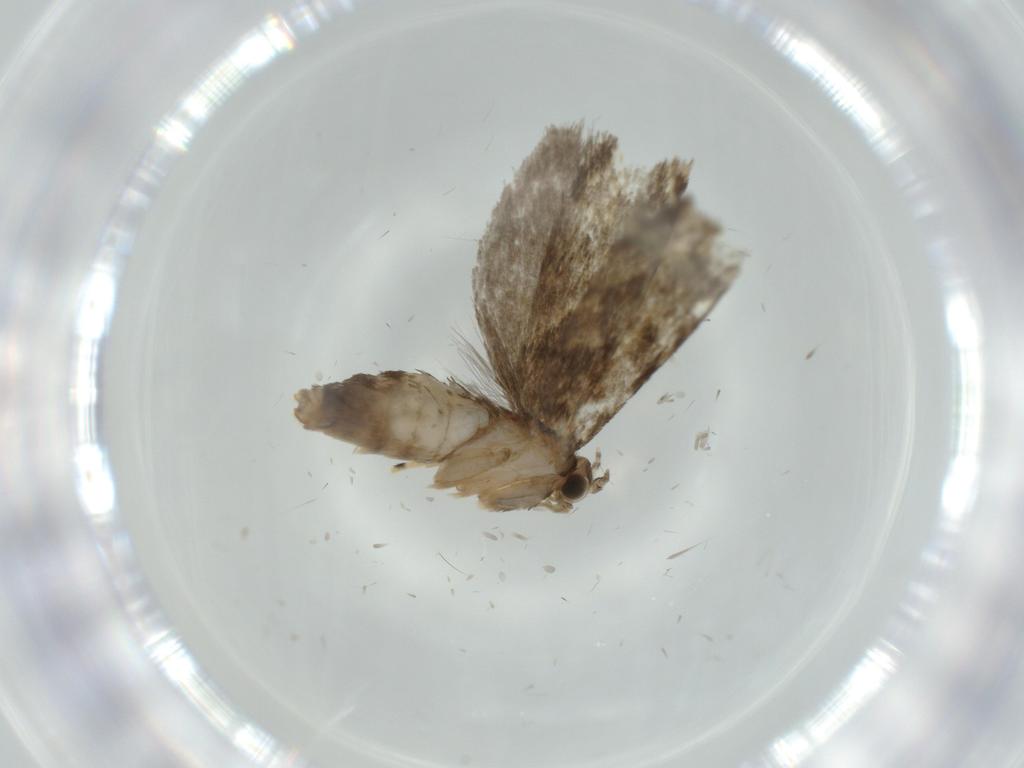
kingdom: Animalia
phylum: Arthropoda
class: Insecta
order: Lepidoptera
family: Tineidae
